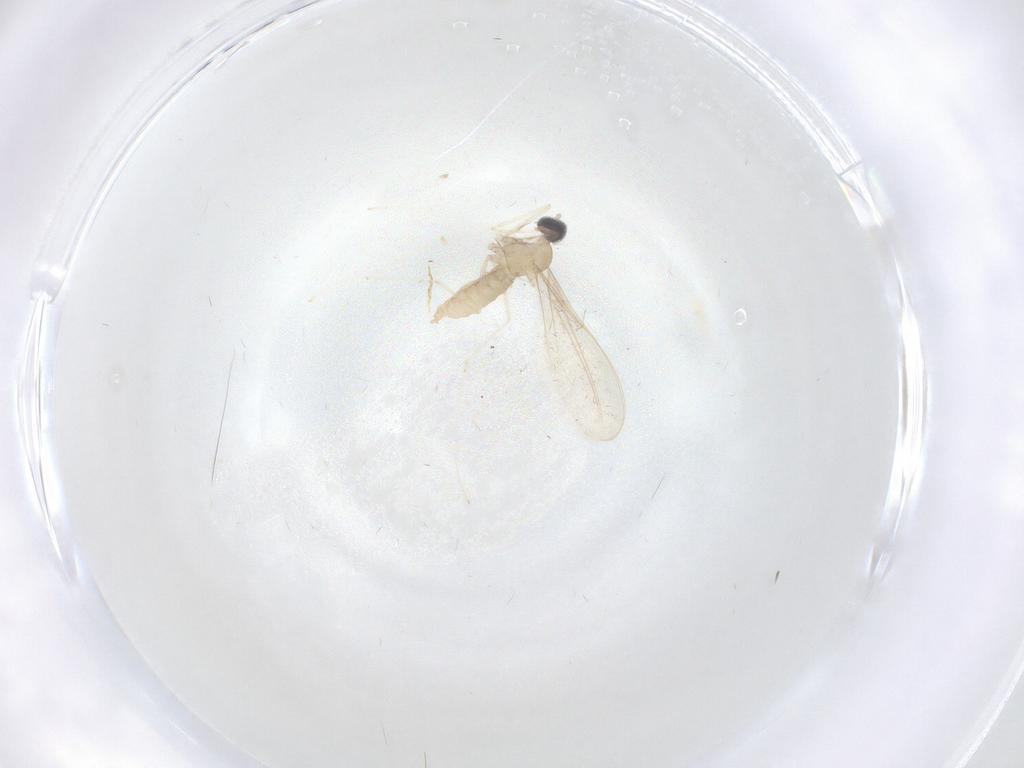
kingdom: Animalia
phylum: Arthropoda
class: Insecta
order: Diptera
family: Cecidomyiidae
